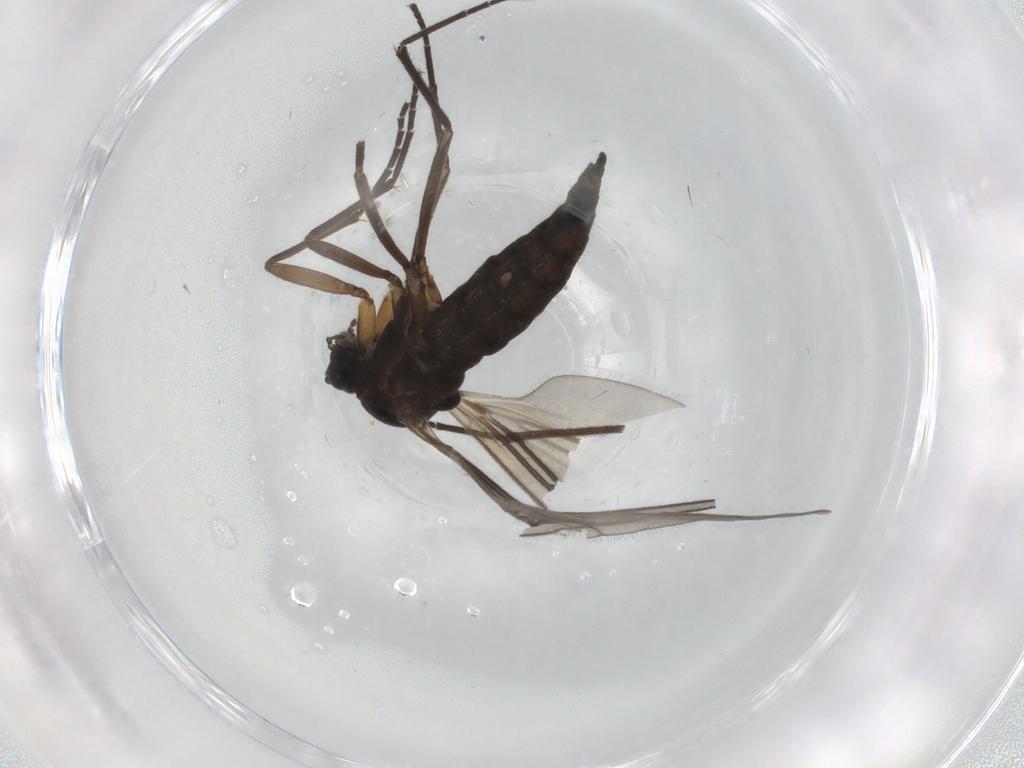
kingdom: Animalia
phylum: Arthropoda
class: Insecta
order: Diptera
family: Sciaridae
